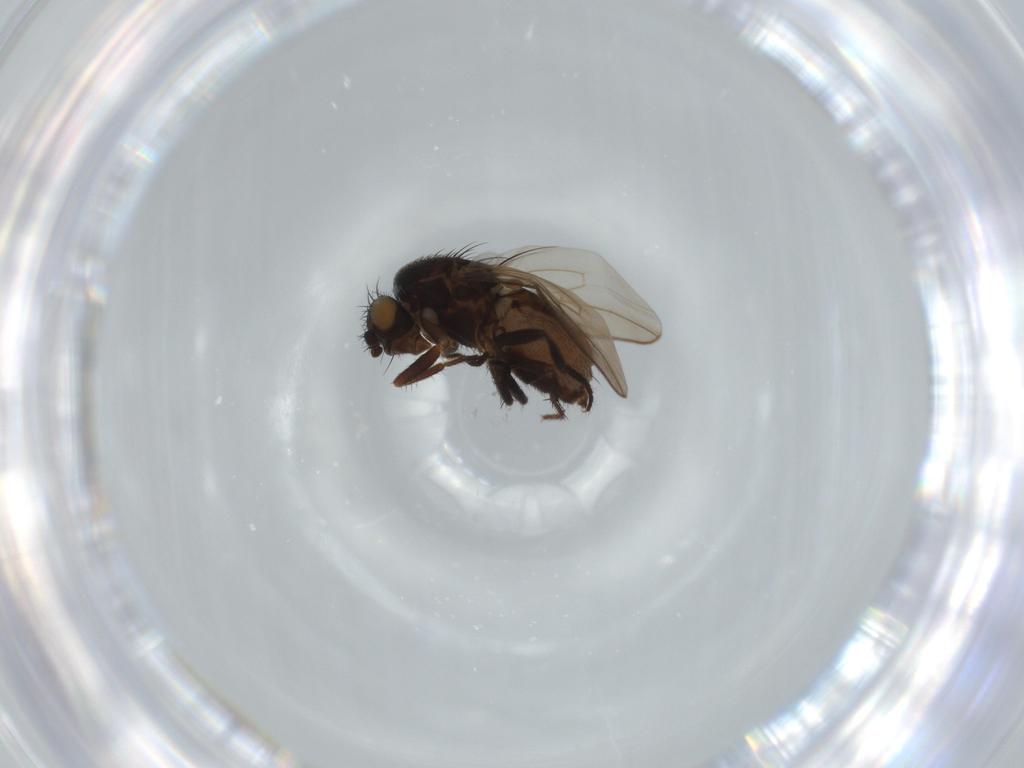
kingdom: Animalia
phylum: Arthropoda
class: Insecta
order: Diptera
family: Sphaeroceridae
